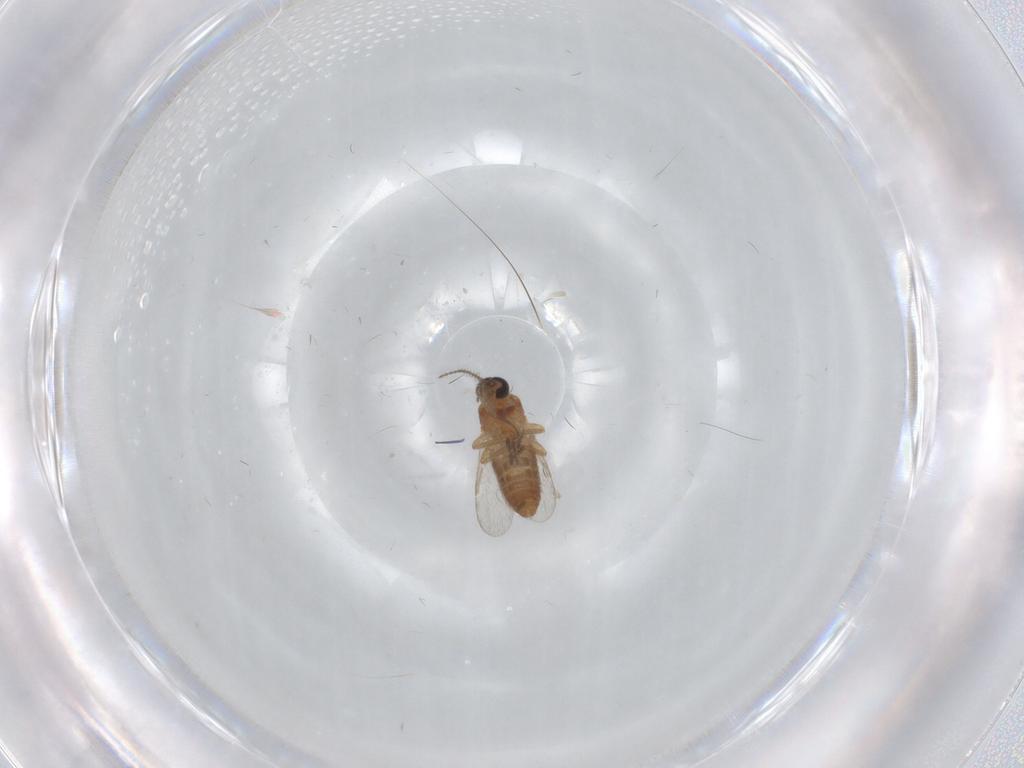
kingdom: Animalia
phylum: Arthropoda
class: Insecta
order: Diptera
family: Ceratopogonidae
